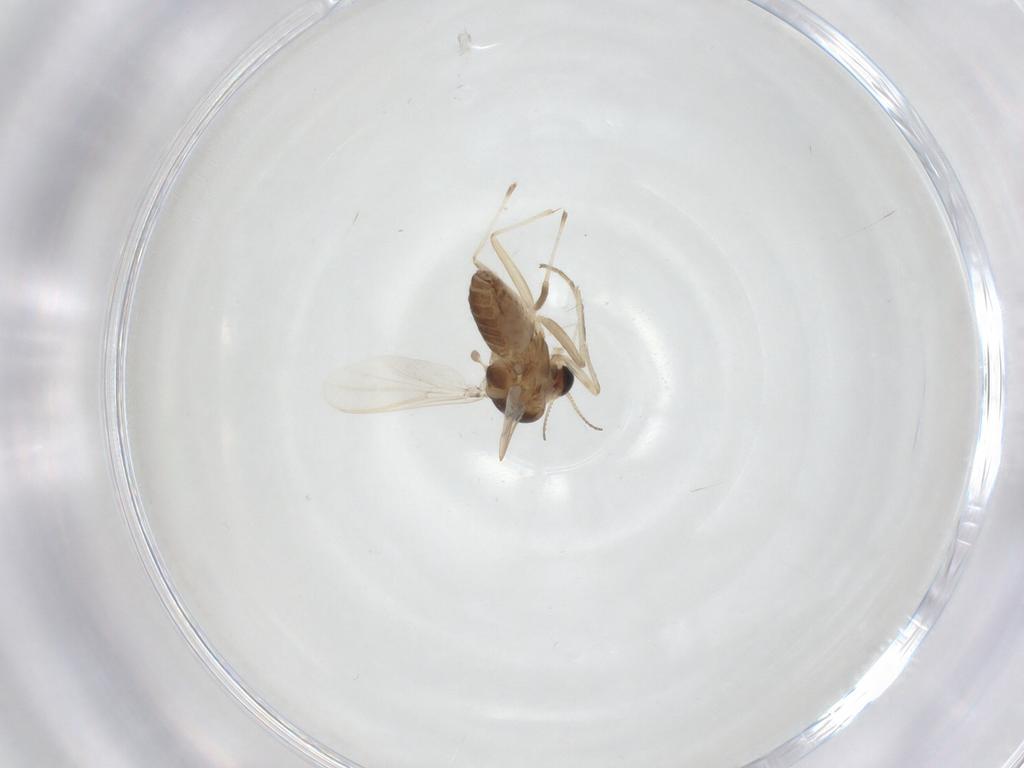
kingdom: Animalia
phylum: Arthropoda
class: Insecta
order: Diptera
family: Chironomidae
